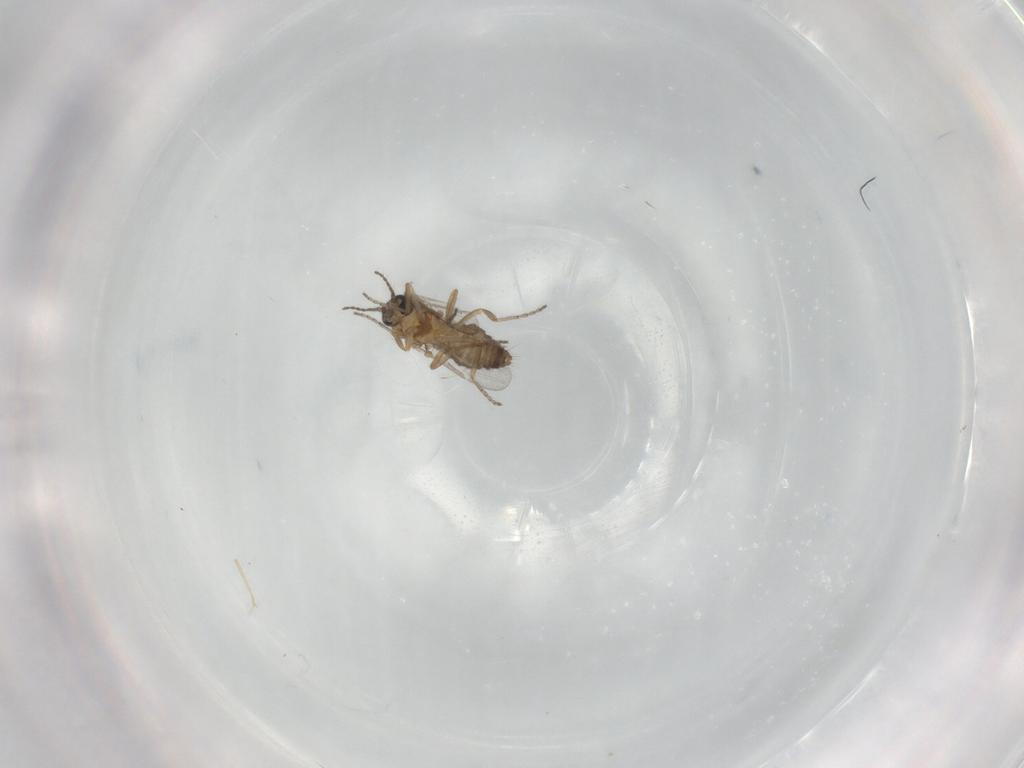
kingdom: Animalia
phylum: Arthropoda
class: Insecta
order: Diptera
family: Ceratopogonidae
